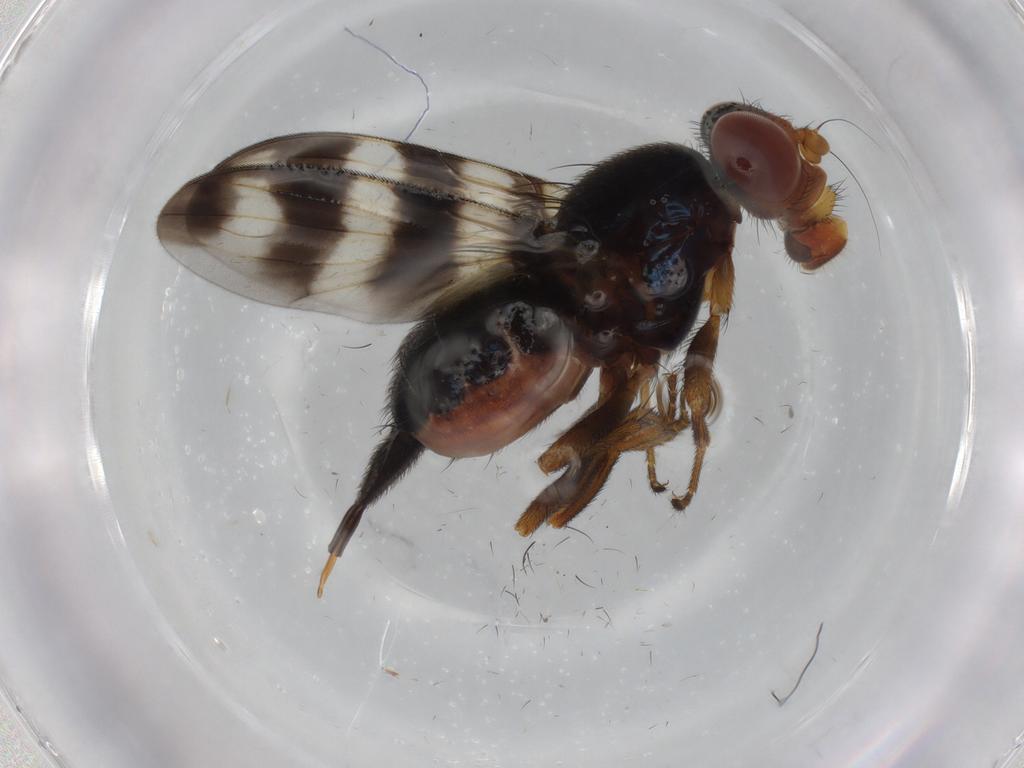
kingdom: Animalia
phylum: Arthropoda
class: Insecta
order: Diptera
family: Ulidiidae
